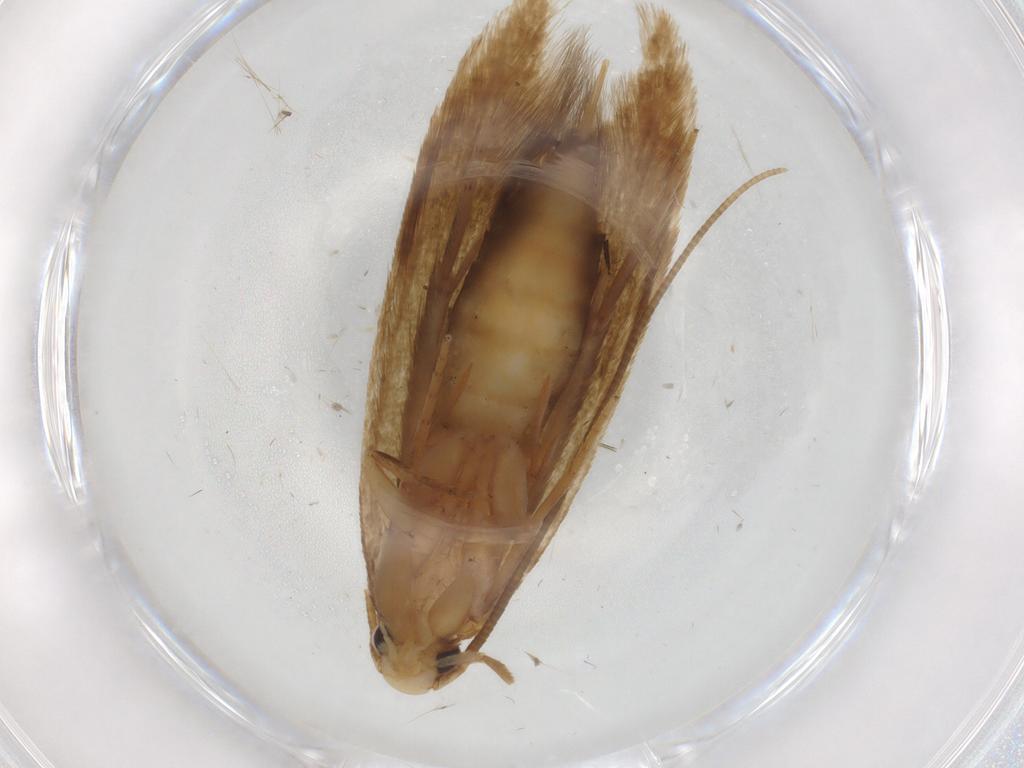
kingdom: Animalia
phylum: Arthropoda
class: Insecta
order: Lepidoptera
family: Tineidae
